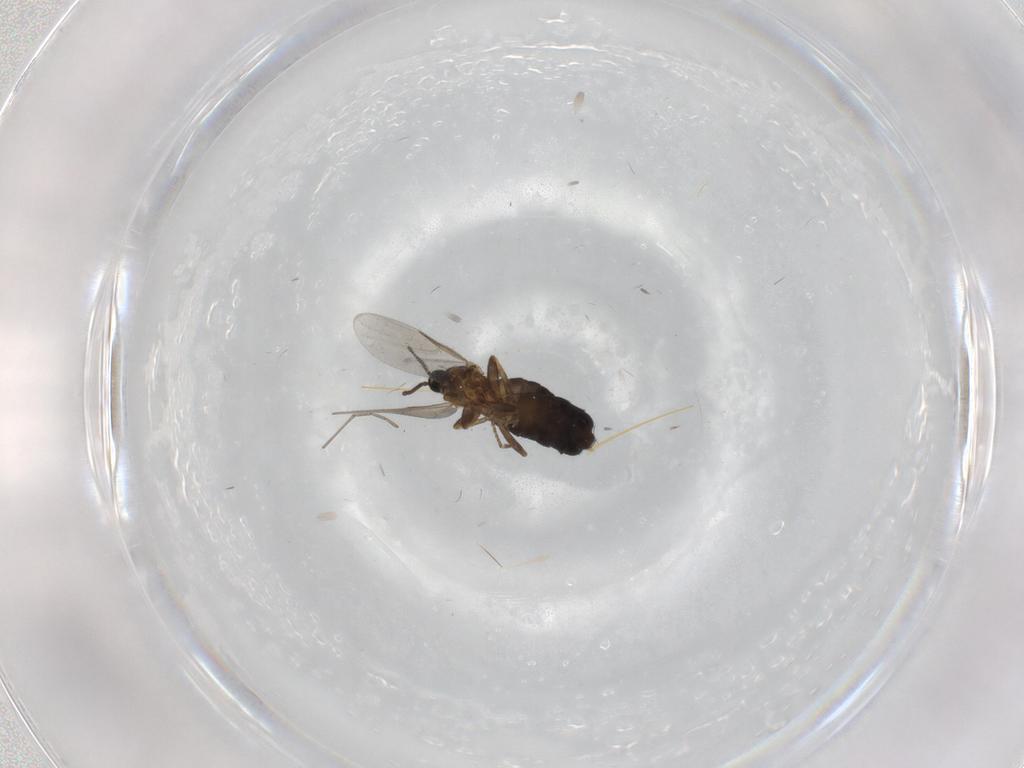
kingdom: Animalia
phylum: Arthropoda
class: Insecta
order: Diptera
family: Scatopsidae
